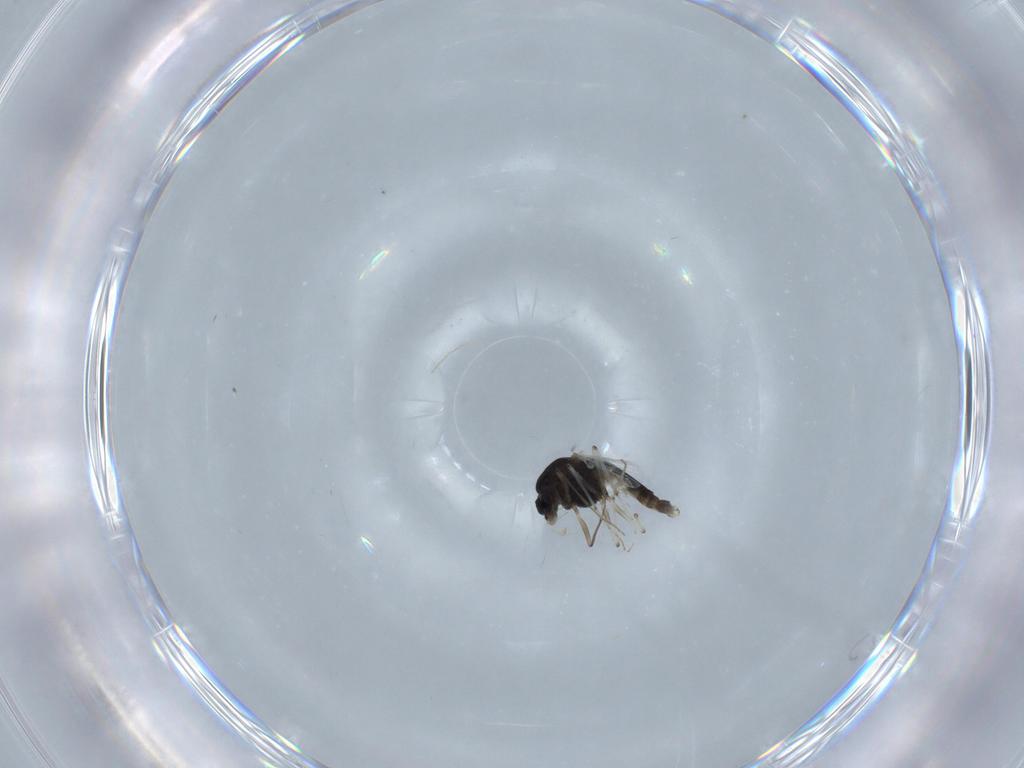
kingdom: Animalia
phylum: Arthropoda
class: Insecta
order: Diptera
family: Chironomidae
